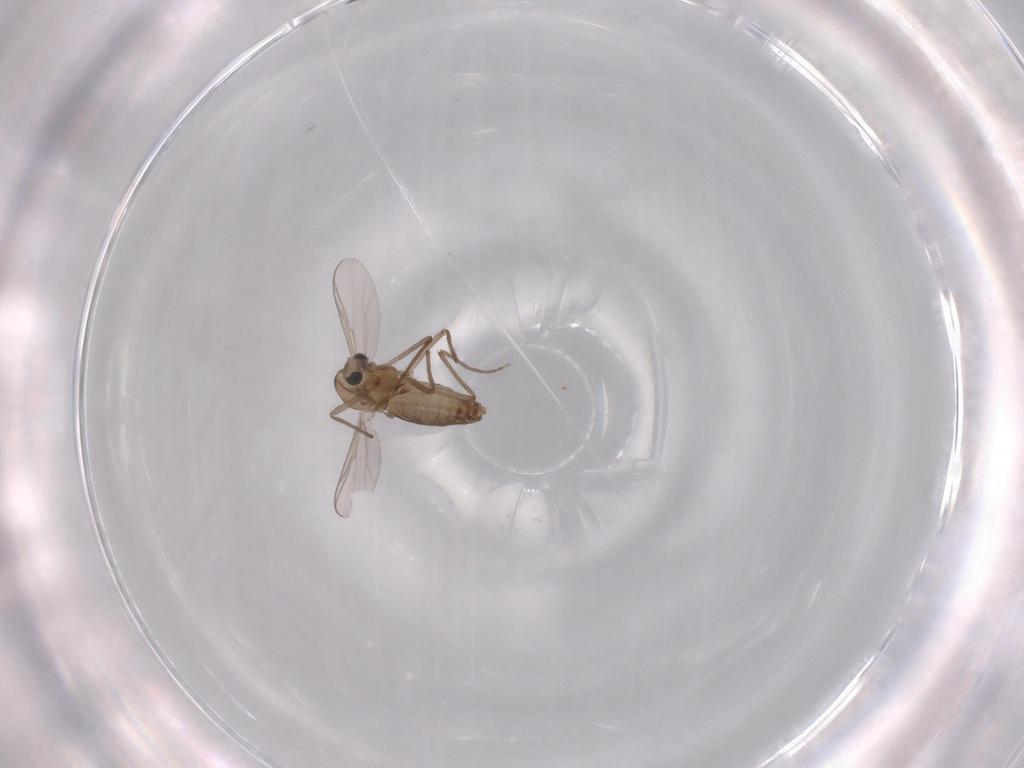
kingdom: Animalia
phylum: Arthropoda
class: Insecta
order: Diptera
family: Chironomidae
